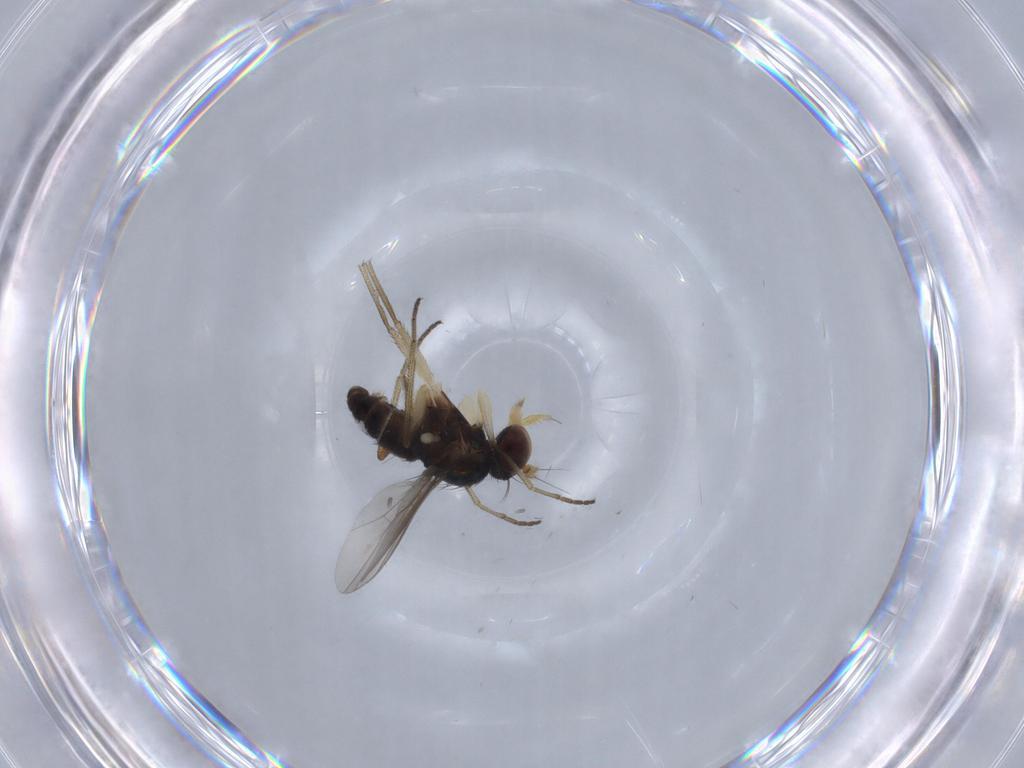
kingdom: Animalia
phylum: Arthropoda
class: Insecta
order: Diptera
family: Dolichopodidae
